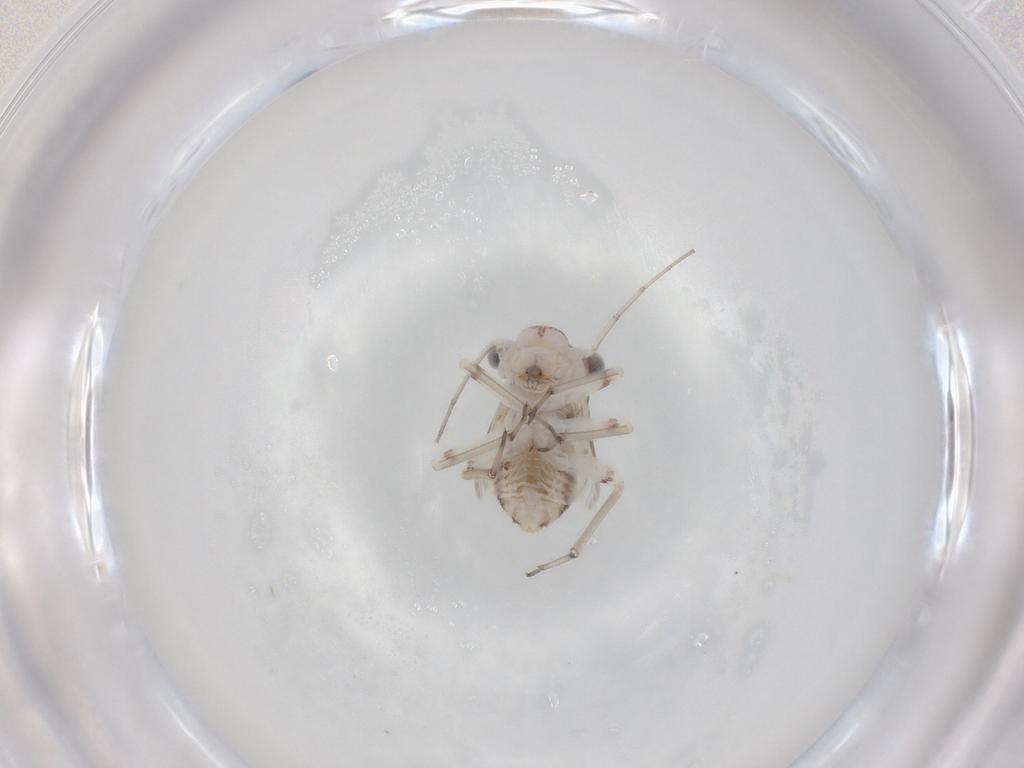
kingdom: Animalia
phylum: Arthropoda
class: Insecta
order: Psocodea
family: Psocidae
